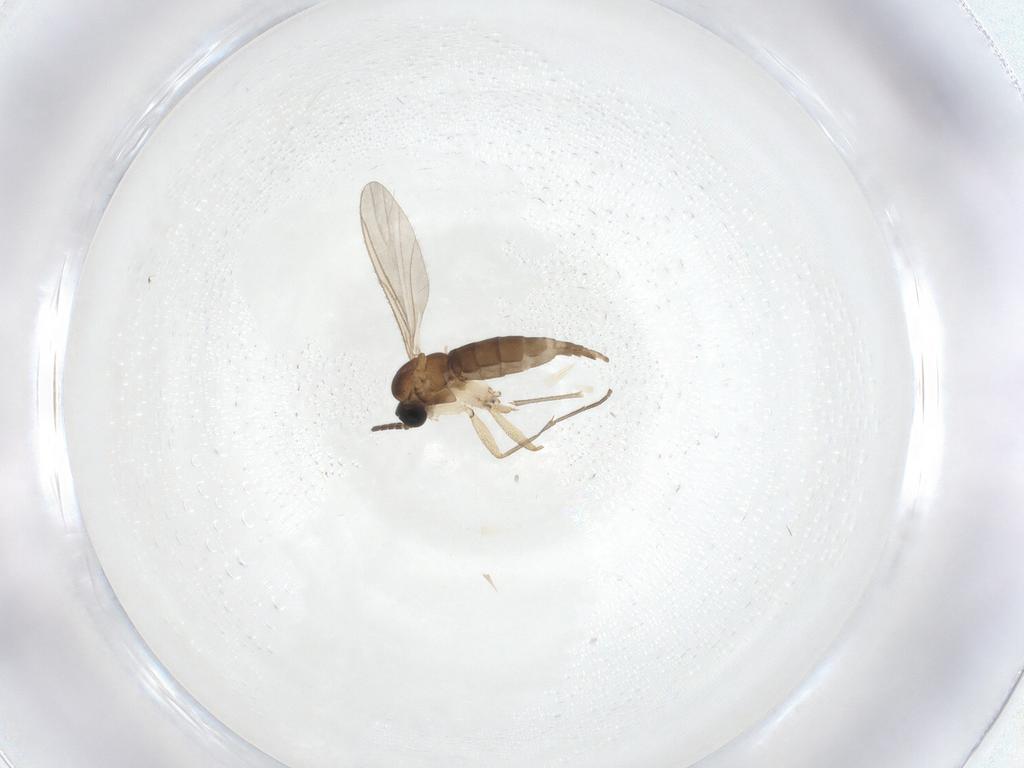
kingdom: Animalia
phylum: Arthropoda
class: Insecta
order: Diptera
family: Sciaridae
